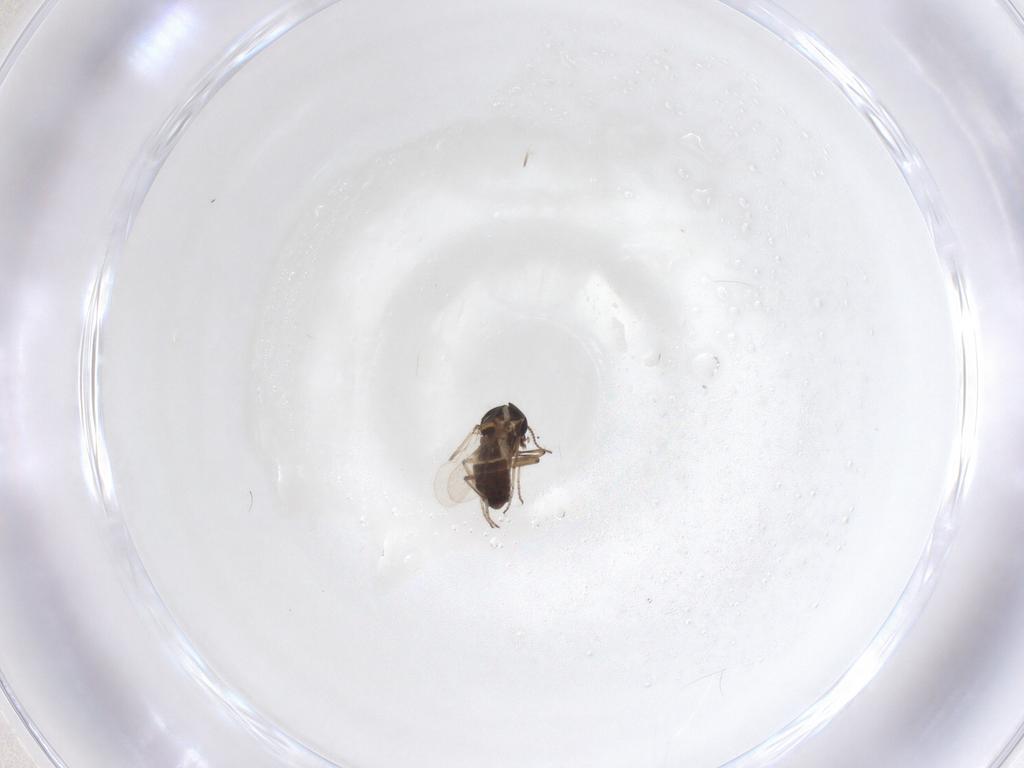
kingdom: Animalia
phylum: Arthropoda
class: Insecta
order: Diptera
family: Ceratopogonidae
